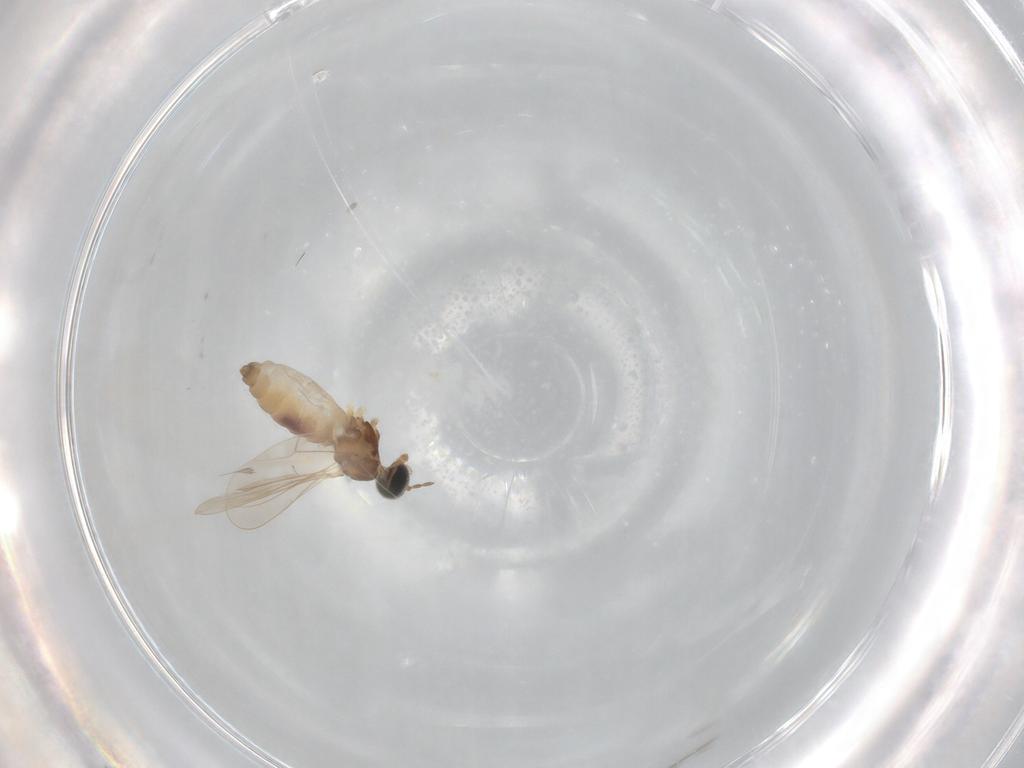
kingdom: Animalia
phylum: Arthropoda
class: Insecta
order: Diptera
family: Cecidomyiidae
